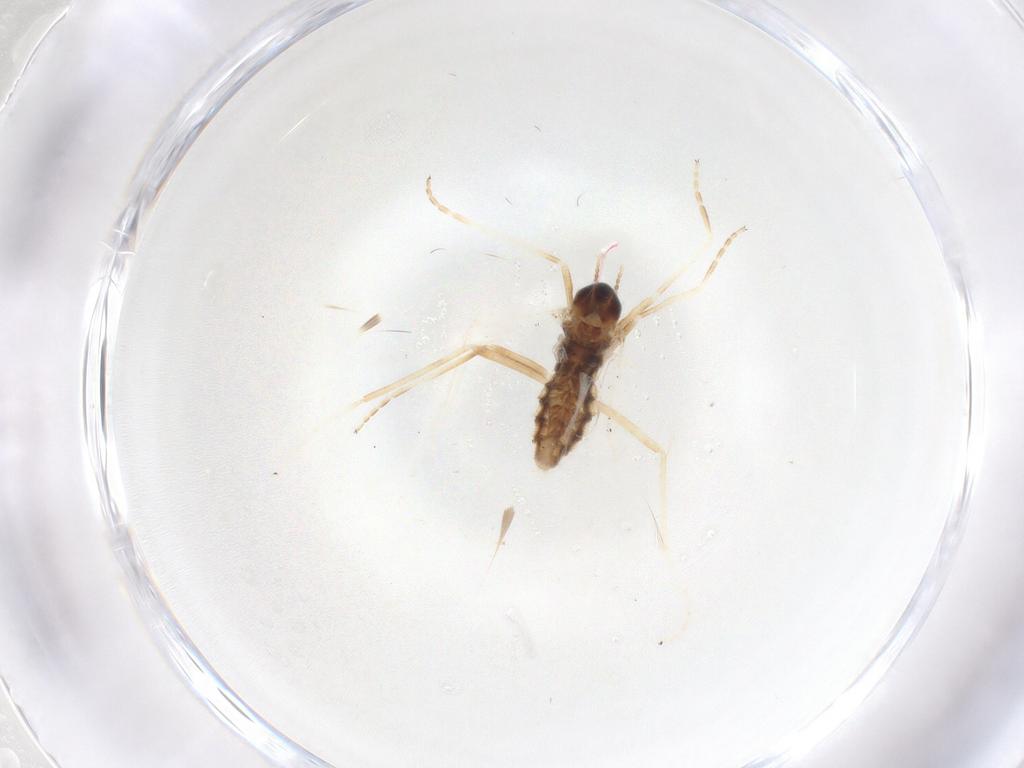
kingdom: Animalia
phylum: Arthropoda
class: Insecta
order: Diptera
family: Cecidomyiidae
